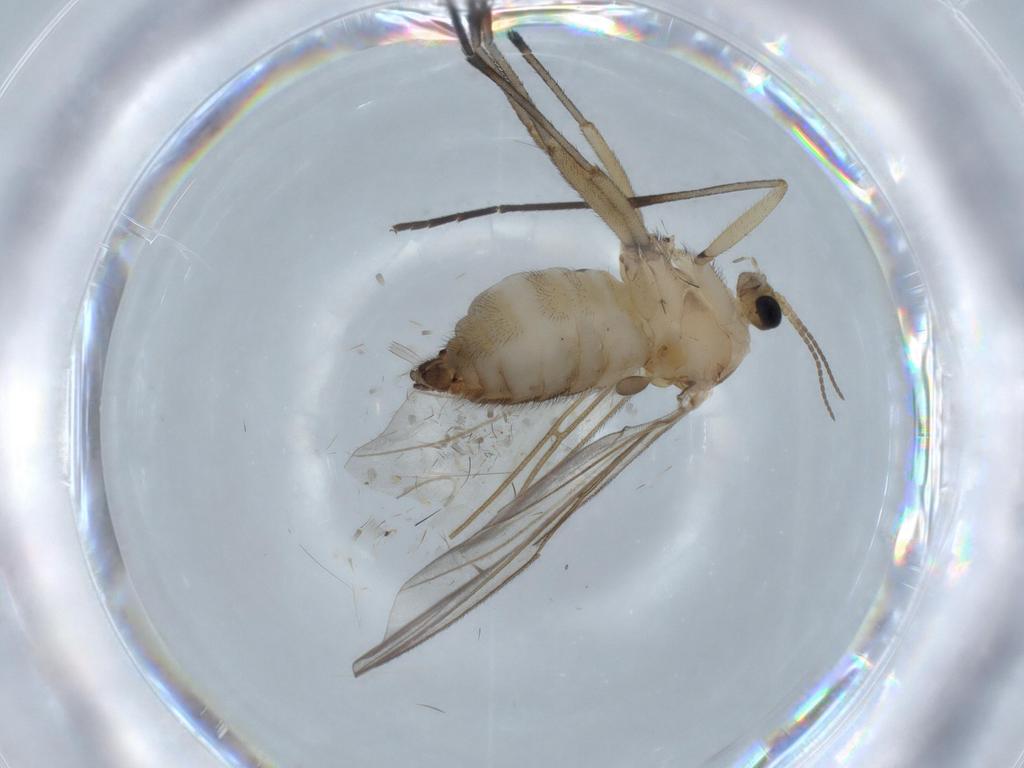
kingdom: Animalia
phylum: Arthropoda
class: Insecta
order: Diptera
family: Sciaridae
